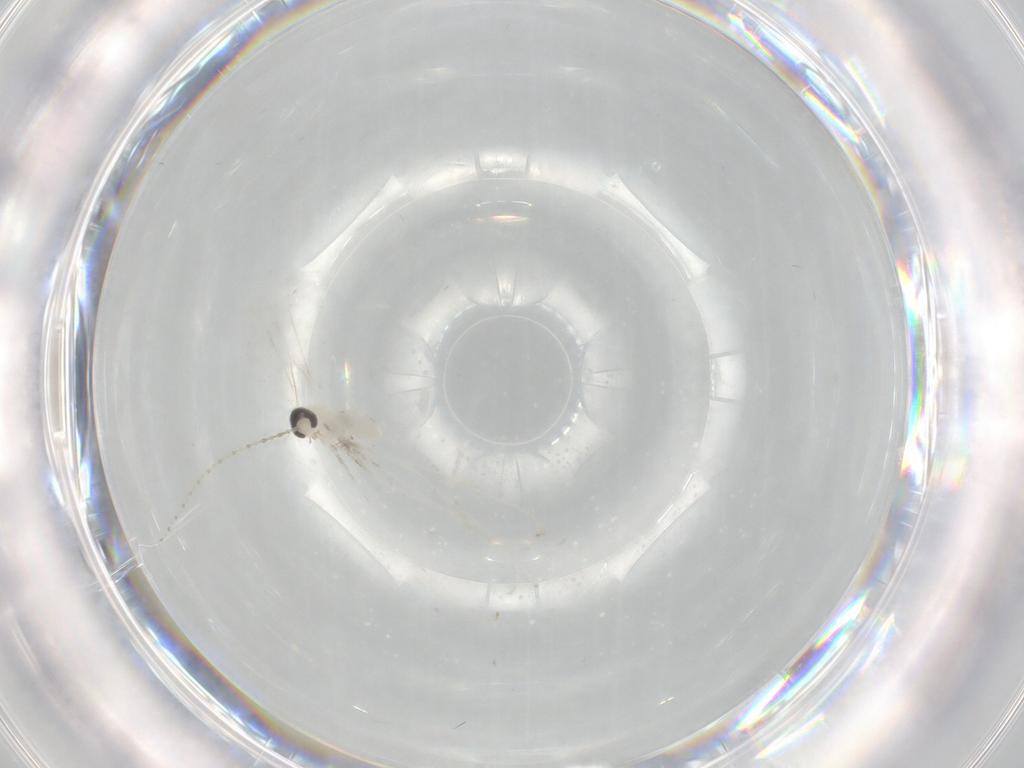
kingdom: Animalia
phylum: Arthropoda
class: Insecta
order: Diptera
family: Cecidomyiidae
